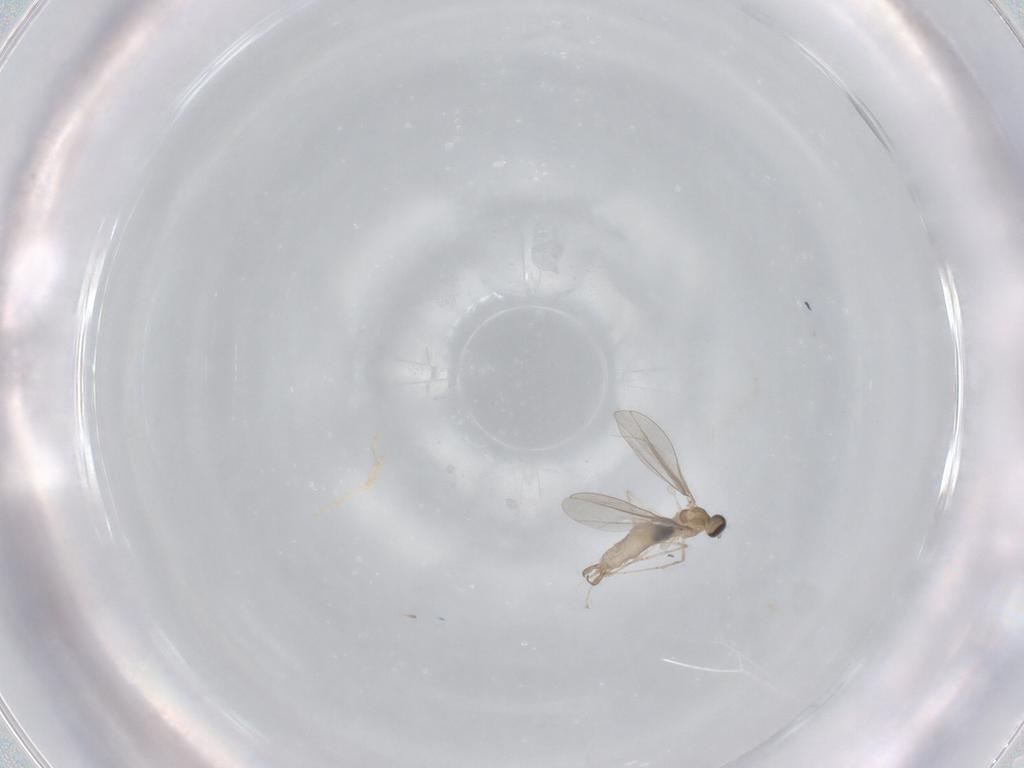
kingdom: Animalia
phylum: Arthropoda
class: Insecta
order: Diptera
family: Cecidomyiidae
